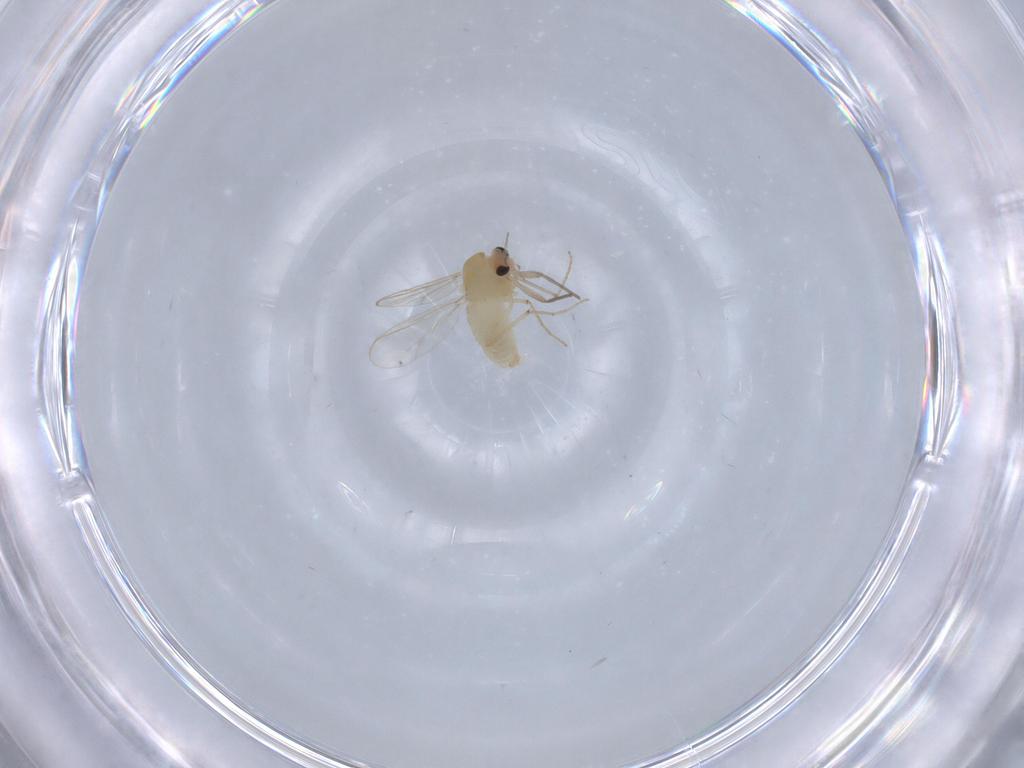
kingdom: Animalia
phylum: Arthropoda
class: Insecta
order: Diptera
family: Chironomidae
